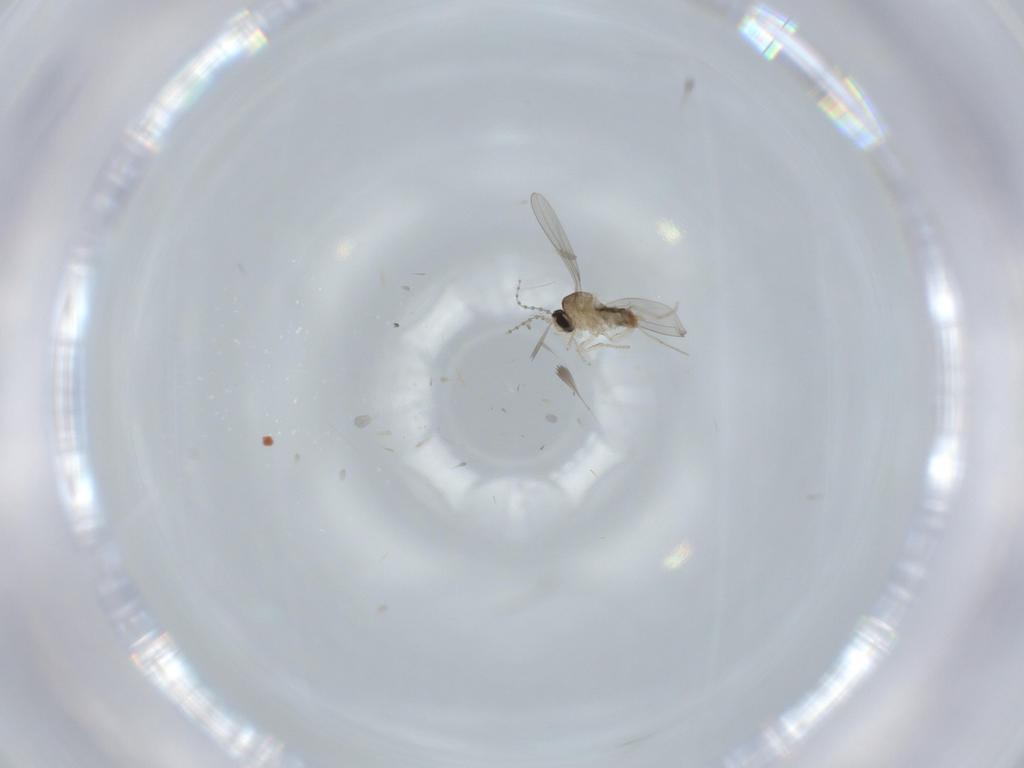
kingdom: Animalia
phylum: Arthropoda
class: Insecta
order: Diptera
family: Cecidomyiidae
